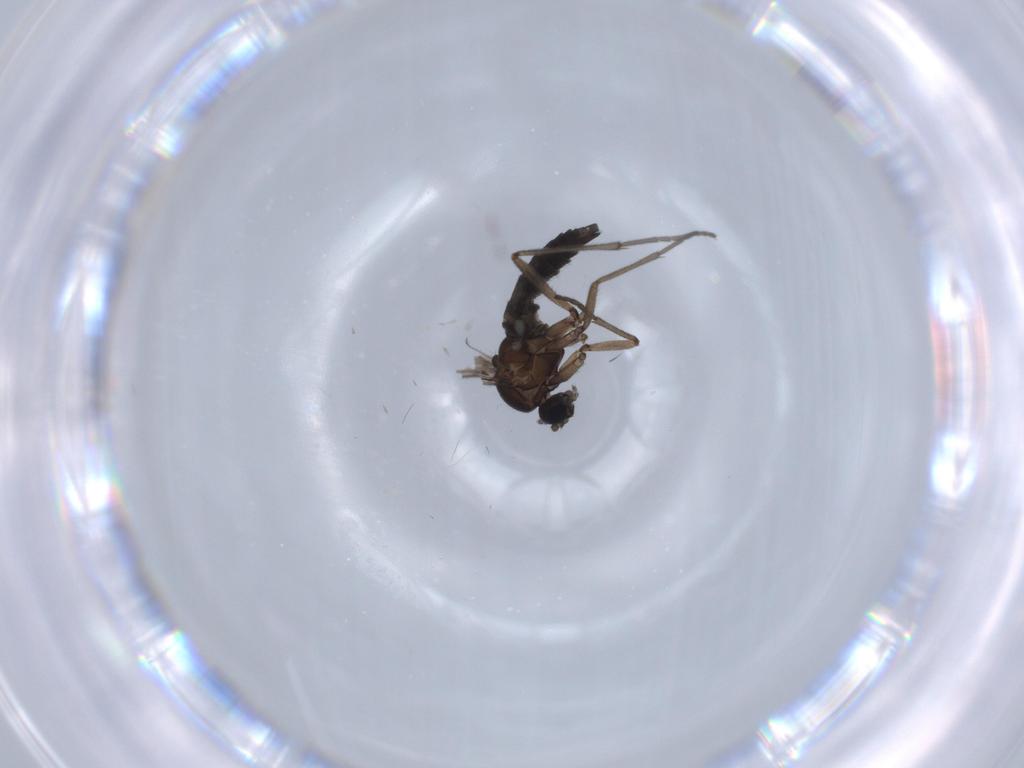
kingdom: Animalia
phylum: Arthropoda
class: Insecta
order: Diptera
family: Sciaridae
